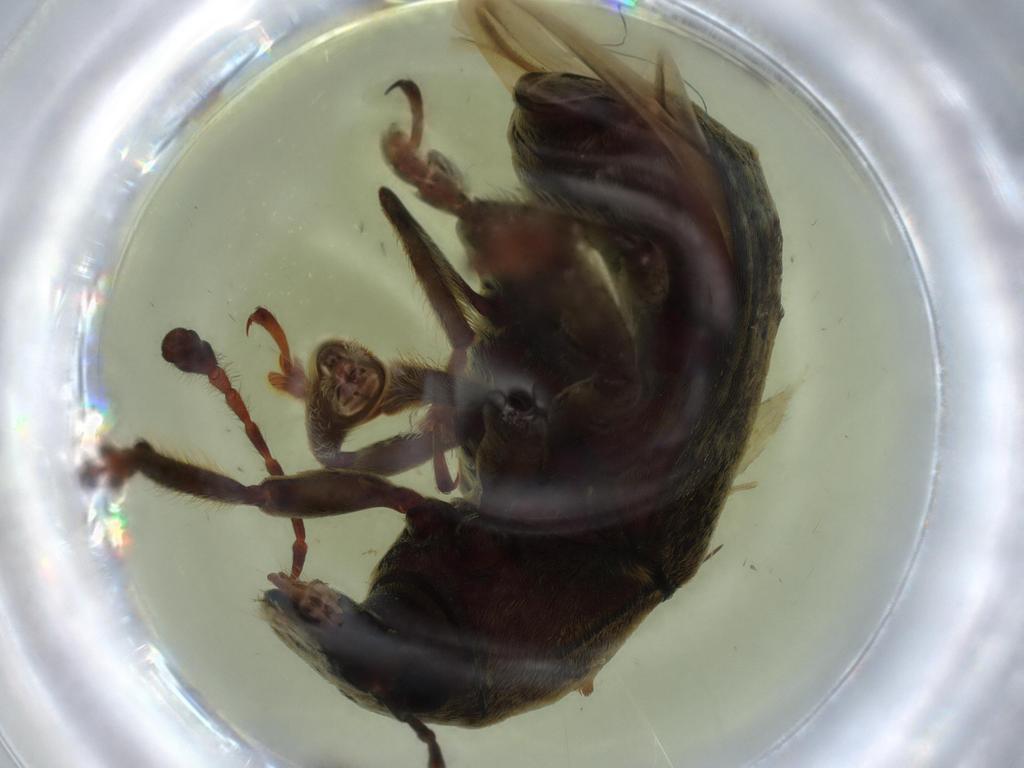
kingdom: Animalia
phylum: Arthropoda
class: Insecta
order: Coleoptera
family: Anthribidae
